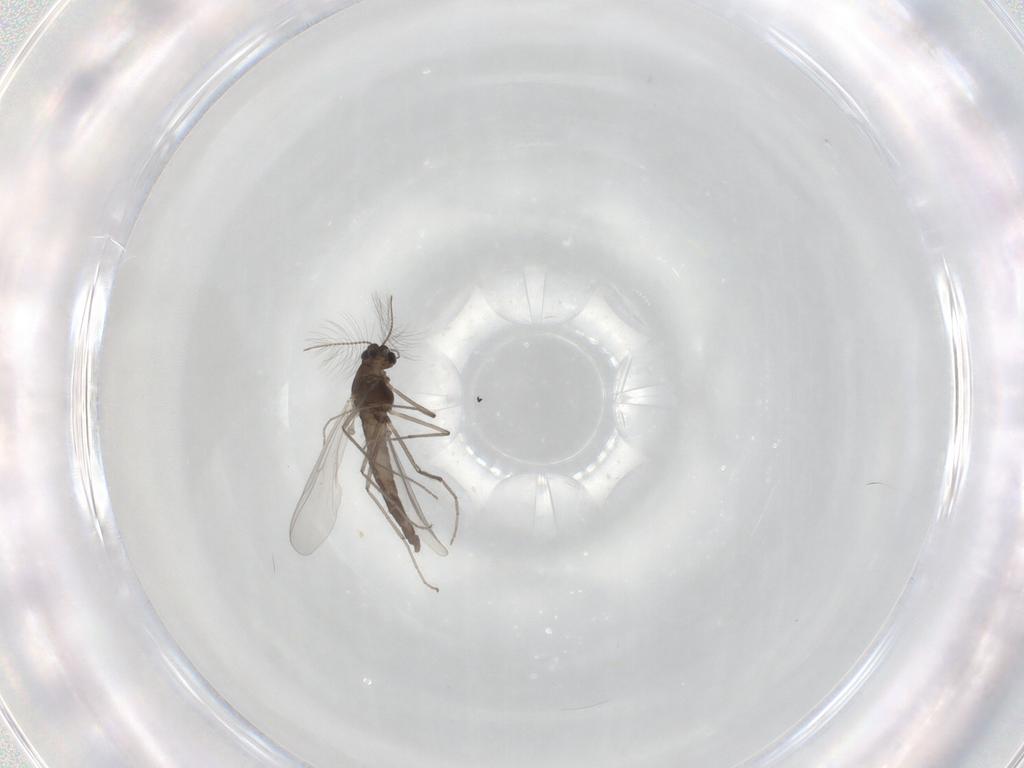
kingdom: Animalia
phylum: Arthropoda
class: Insecta
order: Diptera
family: Chironomidae
